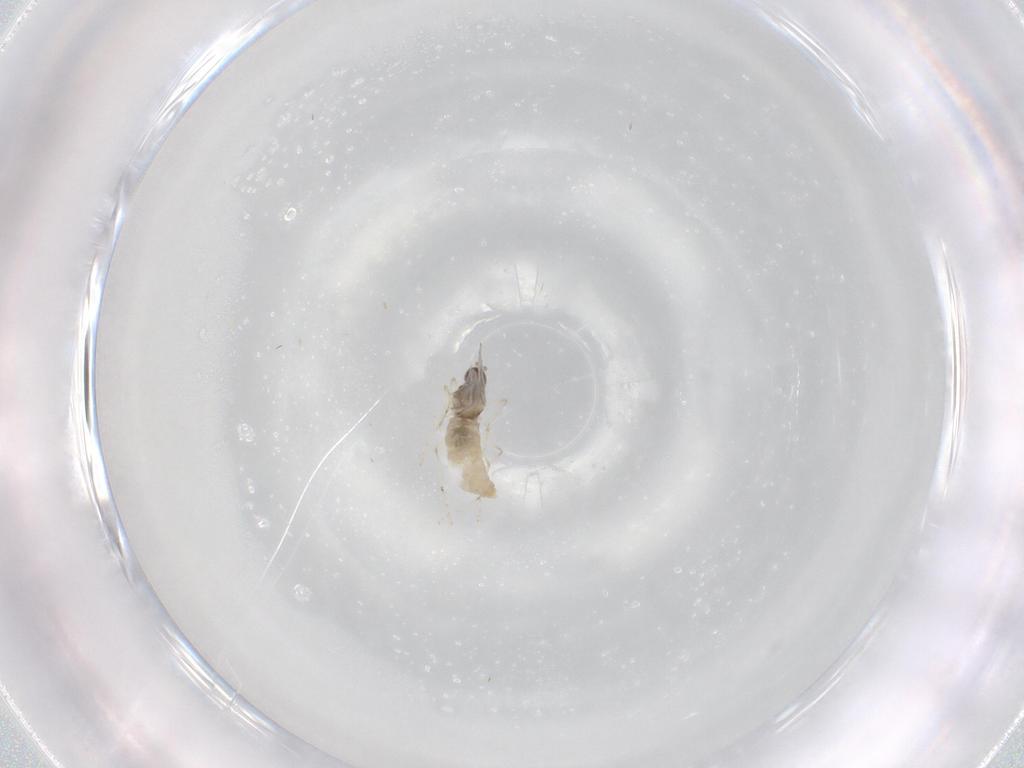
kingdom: Animalia
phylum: Arthropoda
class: Insecta
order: Diptera
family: Cecidomyiidae
